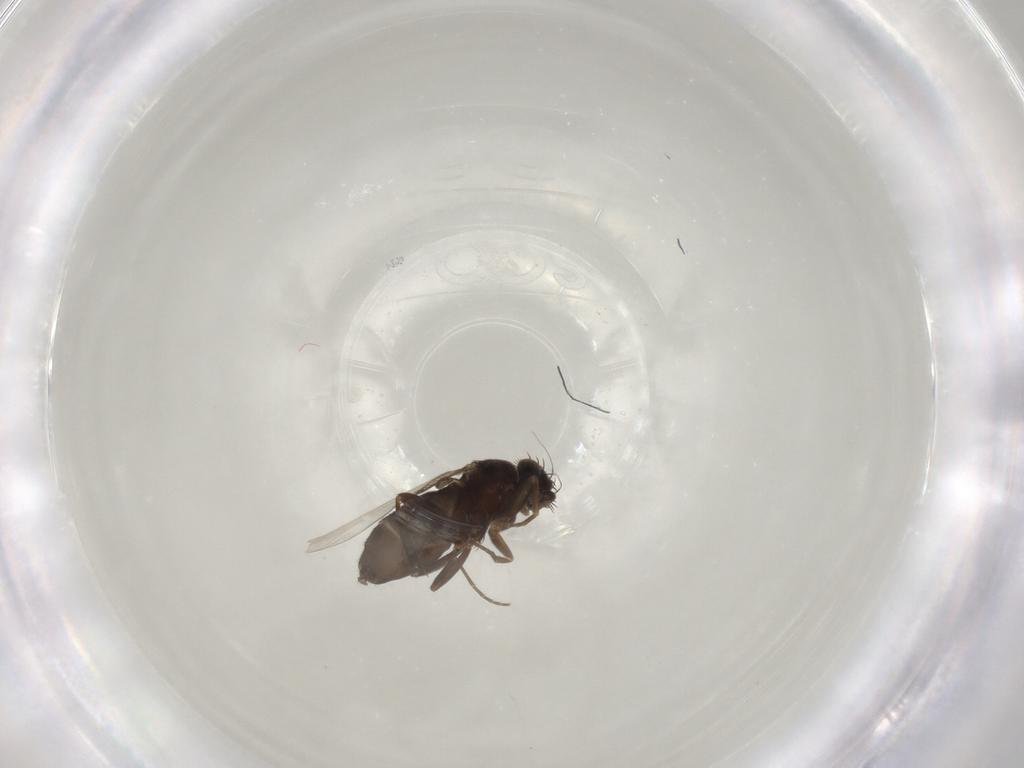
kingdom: Animalia
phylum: Arthropoda
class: Insecta
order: Diptera
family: Phoridae
